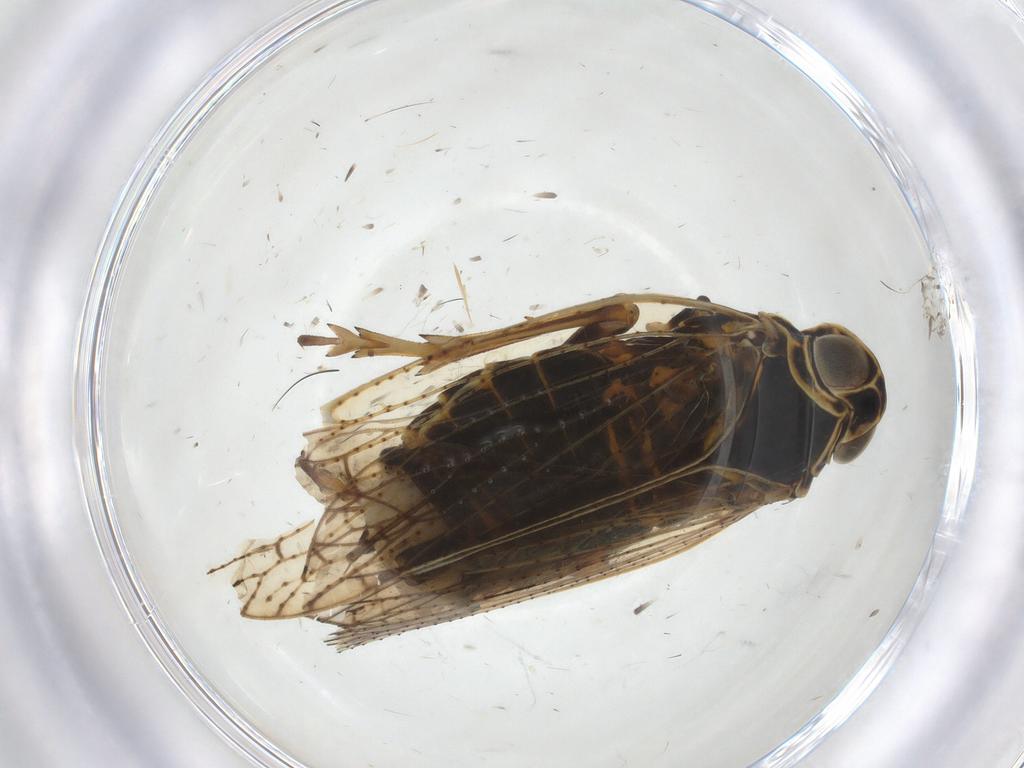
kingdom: Animalia
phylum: Arthropoda
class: Insecta
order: Hemiptera
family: Cixiidae
